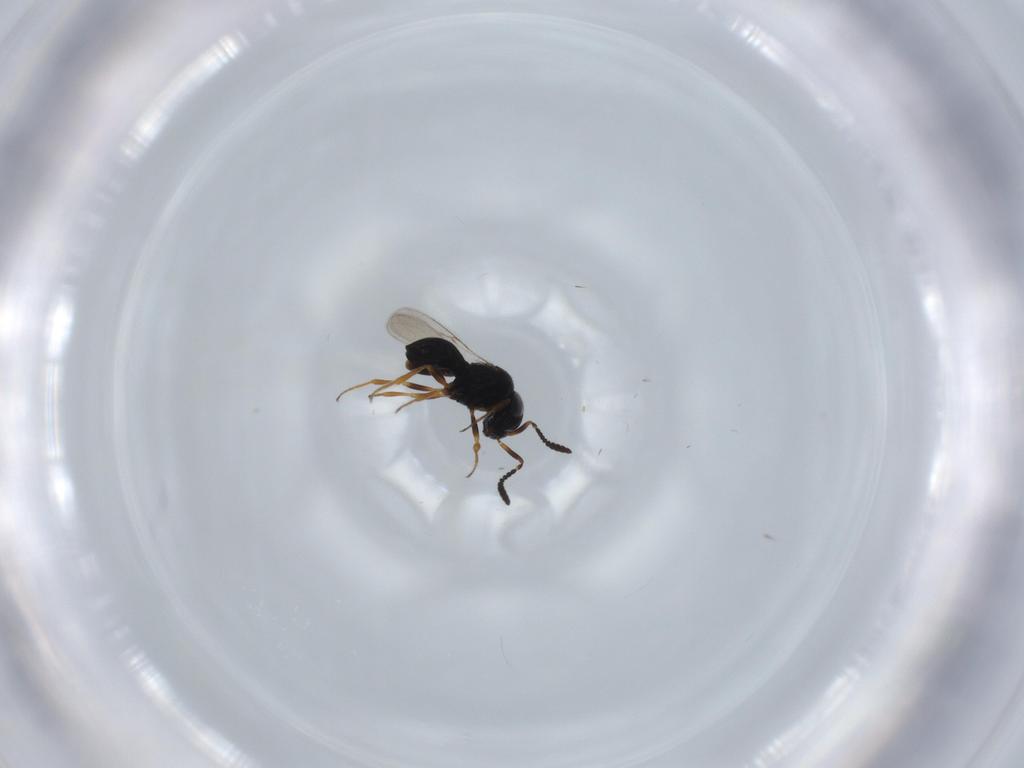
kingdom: Animalia
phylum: Arthropoda
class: Insecta
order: Hymenoptera
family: Scelionidae
